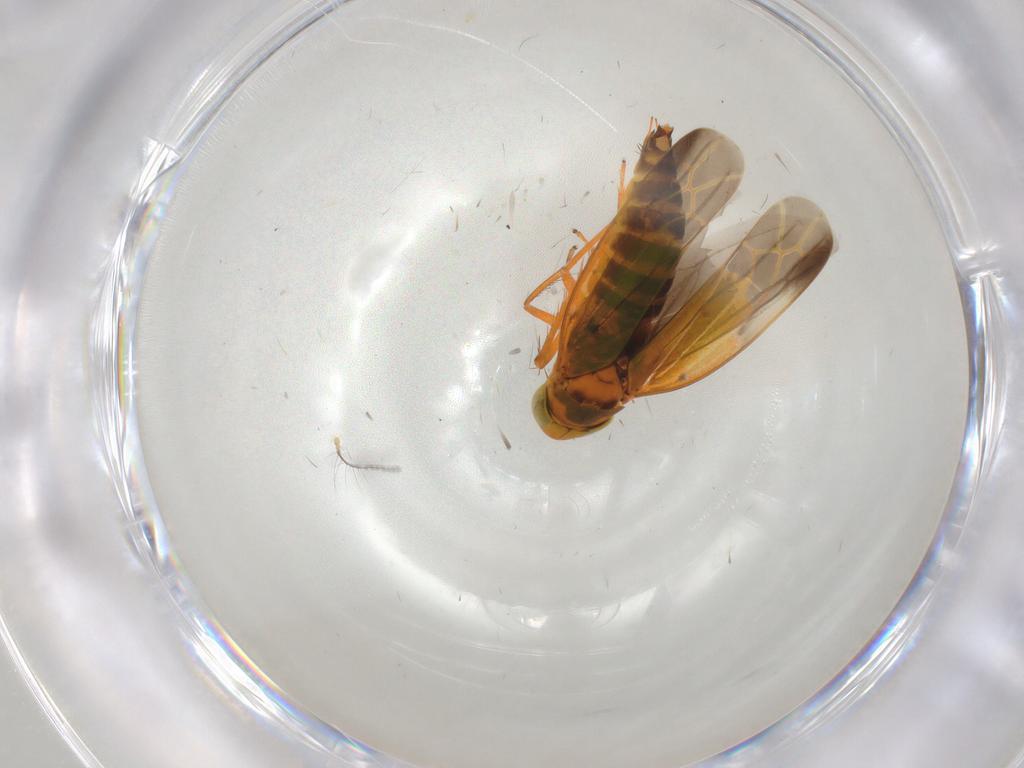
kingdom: Animalia
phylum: Arthropoda
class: Insecta
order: Hemiptera
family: Cicadellidae
